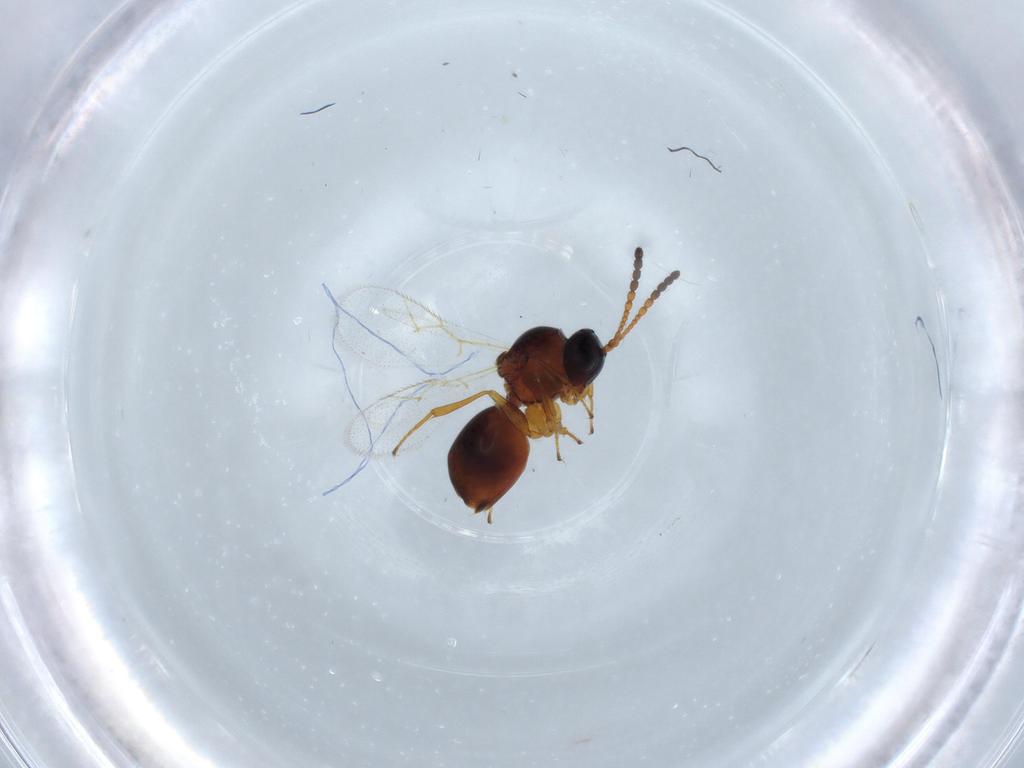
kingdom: Animalia
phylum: Arthropoda
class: Insecta
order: Hymenoptera
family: Figitidae
